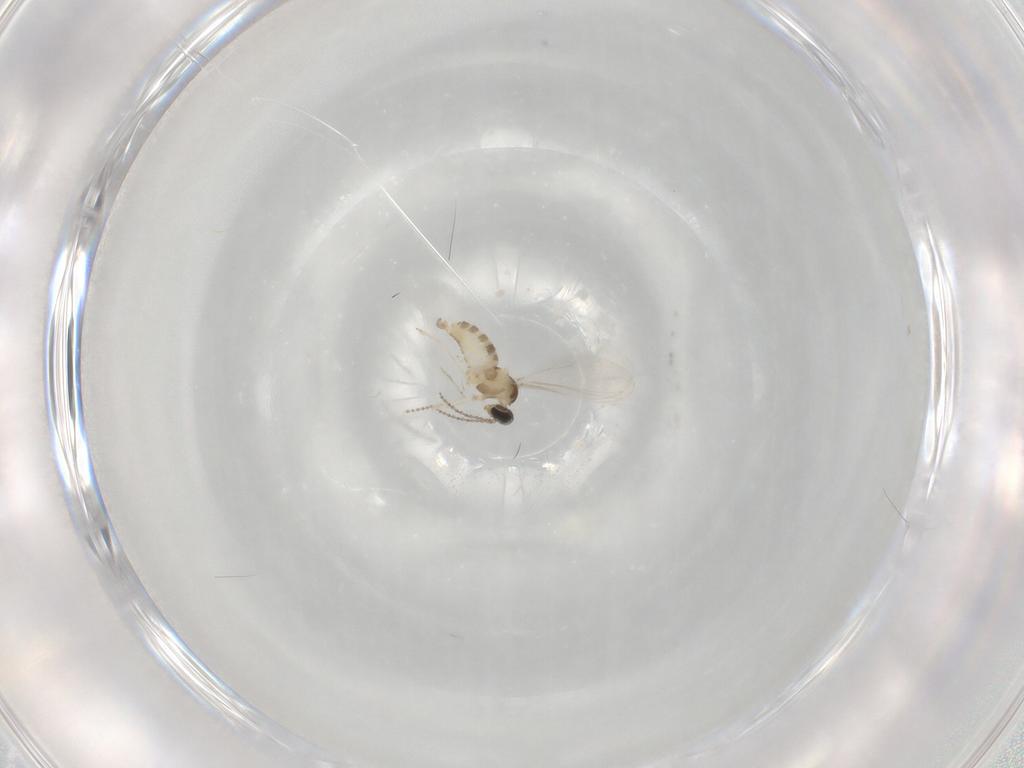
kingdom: Animalia
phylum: Arthropoda
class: Insecta
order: Diptera
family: Cecidomyiidae
